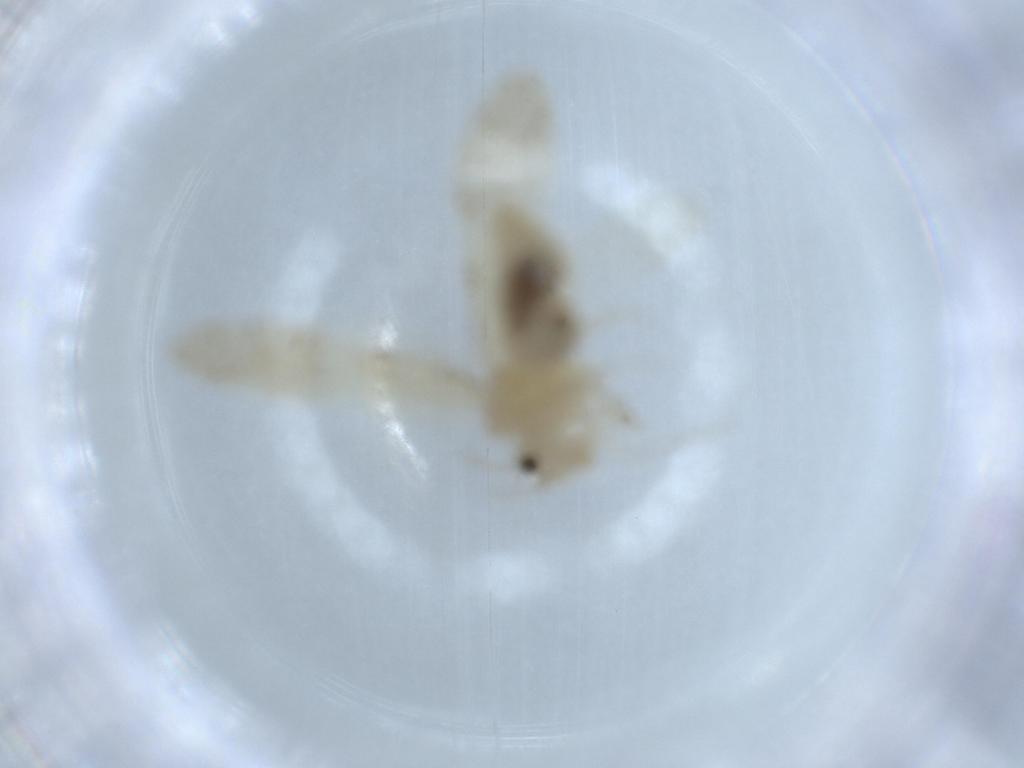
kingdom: Animalia
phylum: Arthropoda
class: Insecta
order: Psocodea
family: Caeciliusidae
